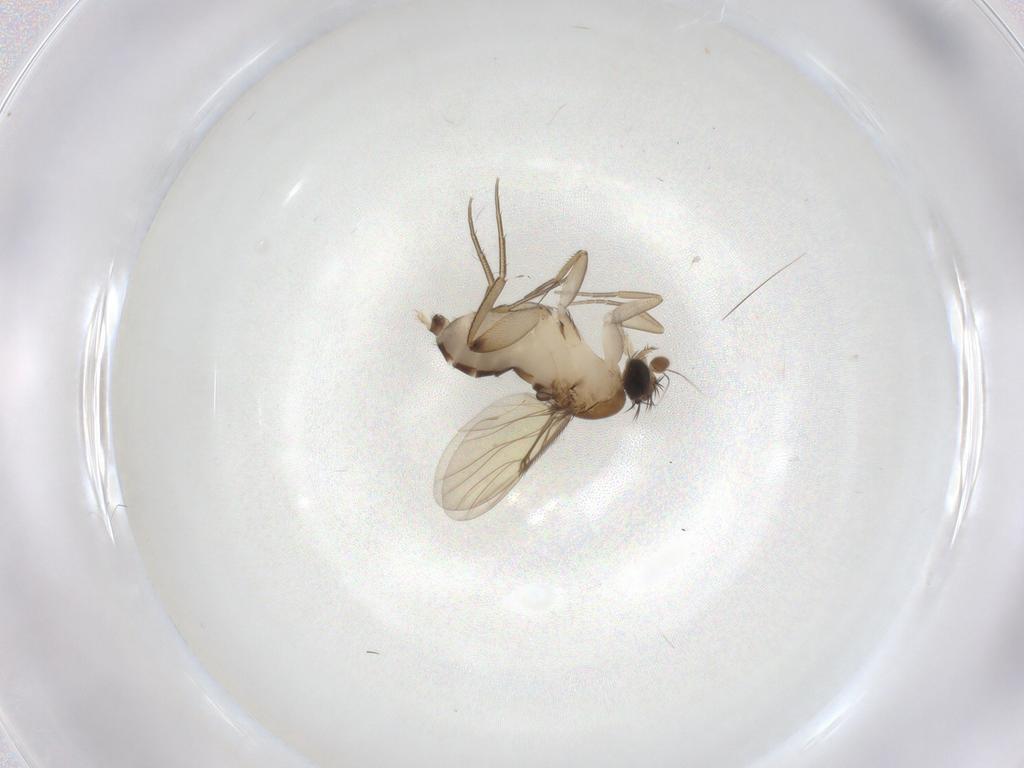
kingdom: Animalia
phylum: Arthropoda
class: Insecta
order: Diptera
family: Phoridae
